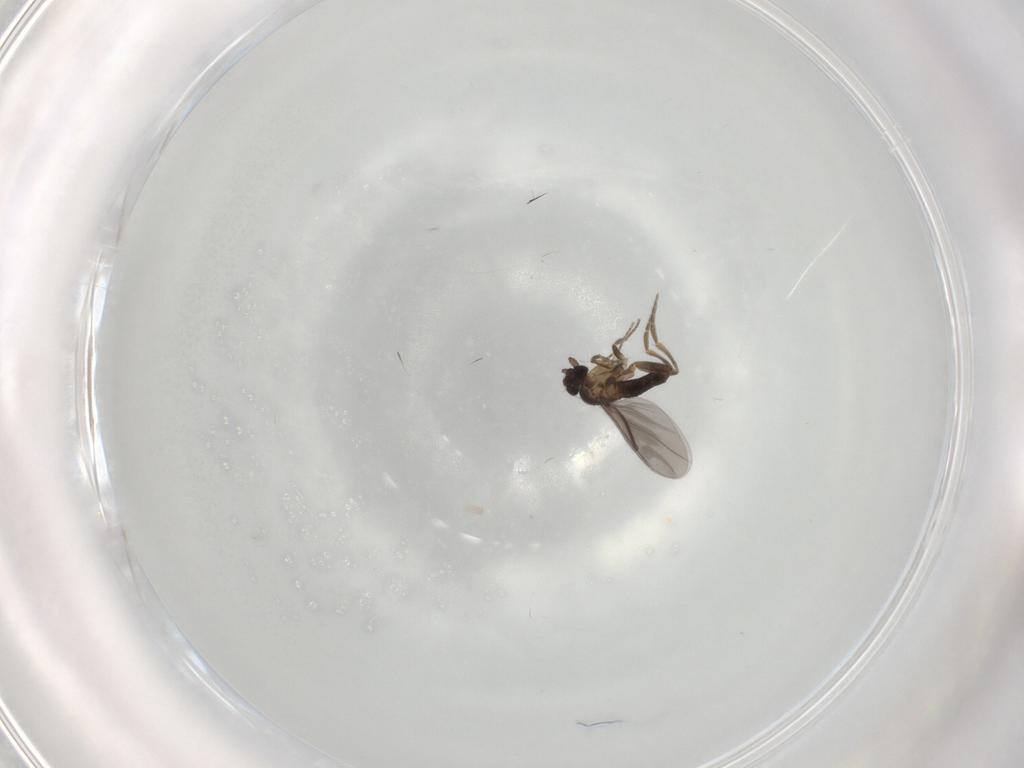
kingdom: Animalia
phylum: Arthropoda
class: Insecta
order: Diptera
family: Phoridae
